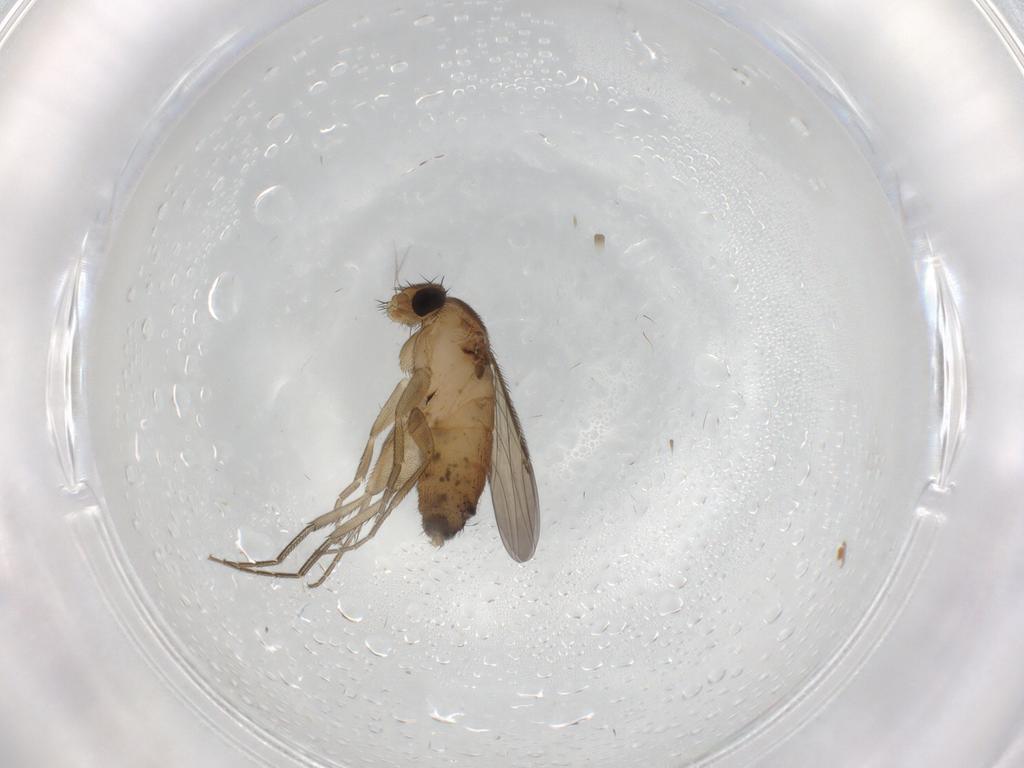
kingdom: Animalia
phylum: Arthropoda
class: Insecta
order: Diptera
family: Phoridae
